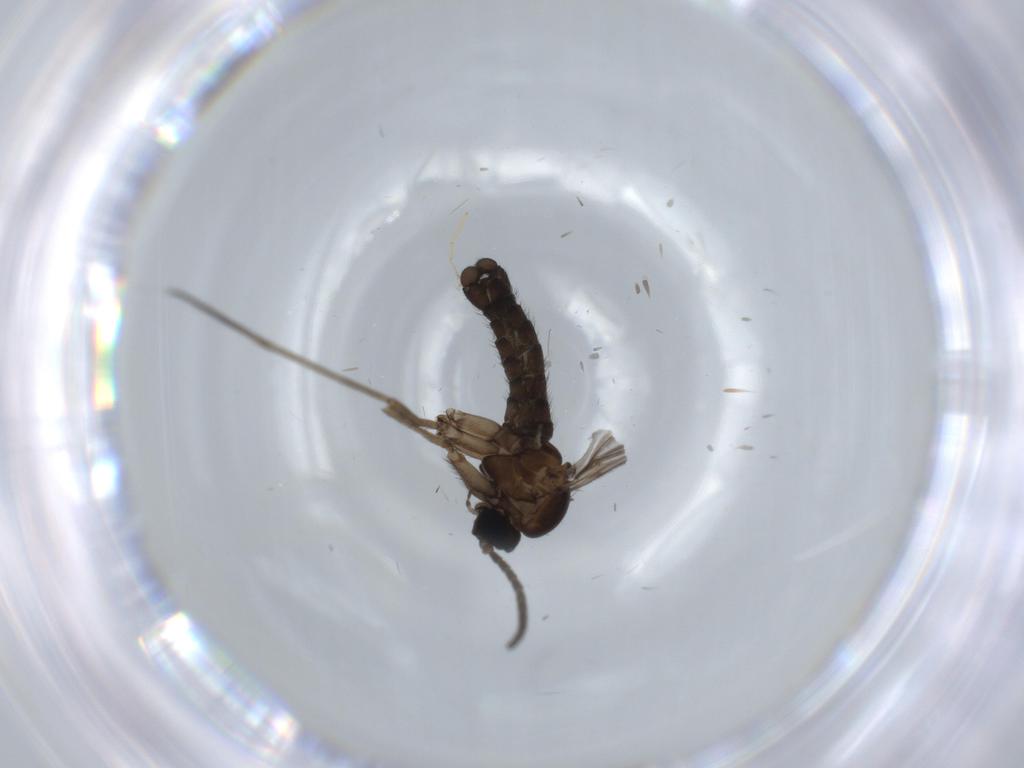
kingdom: Animalia
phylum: Arthropoda
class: Insecta
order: Diptera
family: Sciaridae
